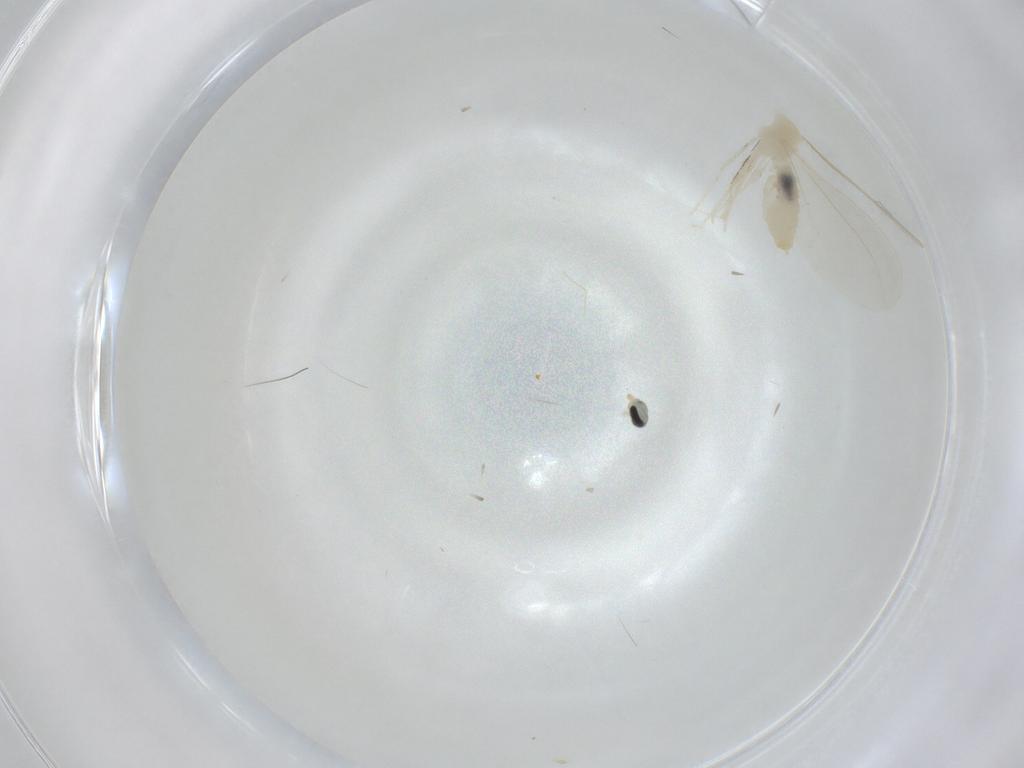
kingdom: Animalia
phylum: Arthropoda
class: Insecta
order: Diptera
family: Cecidomyiidae
